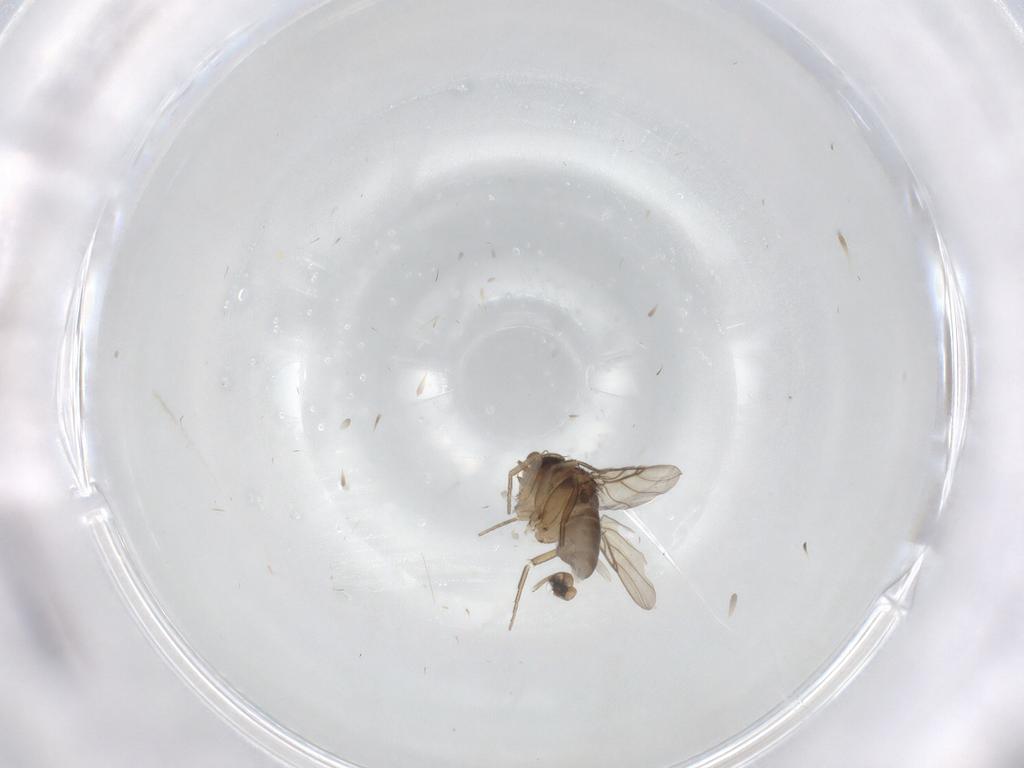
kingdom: Animalia
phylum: Arthropoda
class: Insecta
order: Diptera
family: Phoridae
